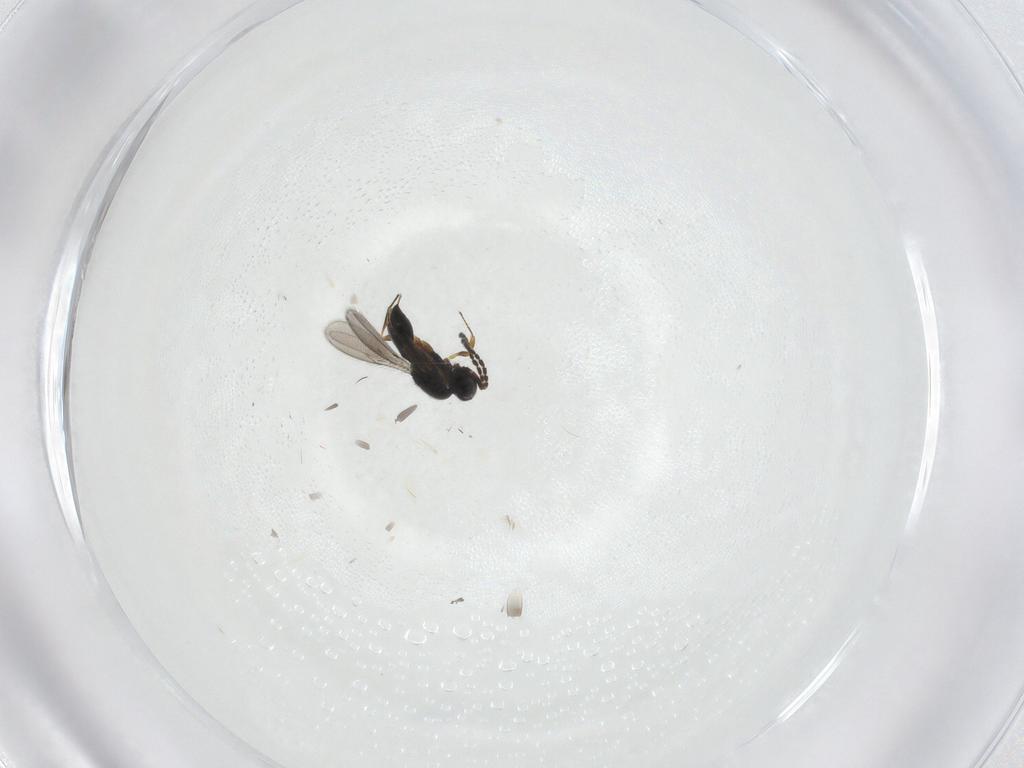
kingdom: Animalia
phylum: Arthropoda
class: Insecta
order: Hymenoptera
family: Scelionidae
